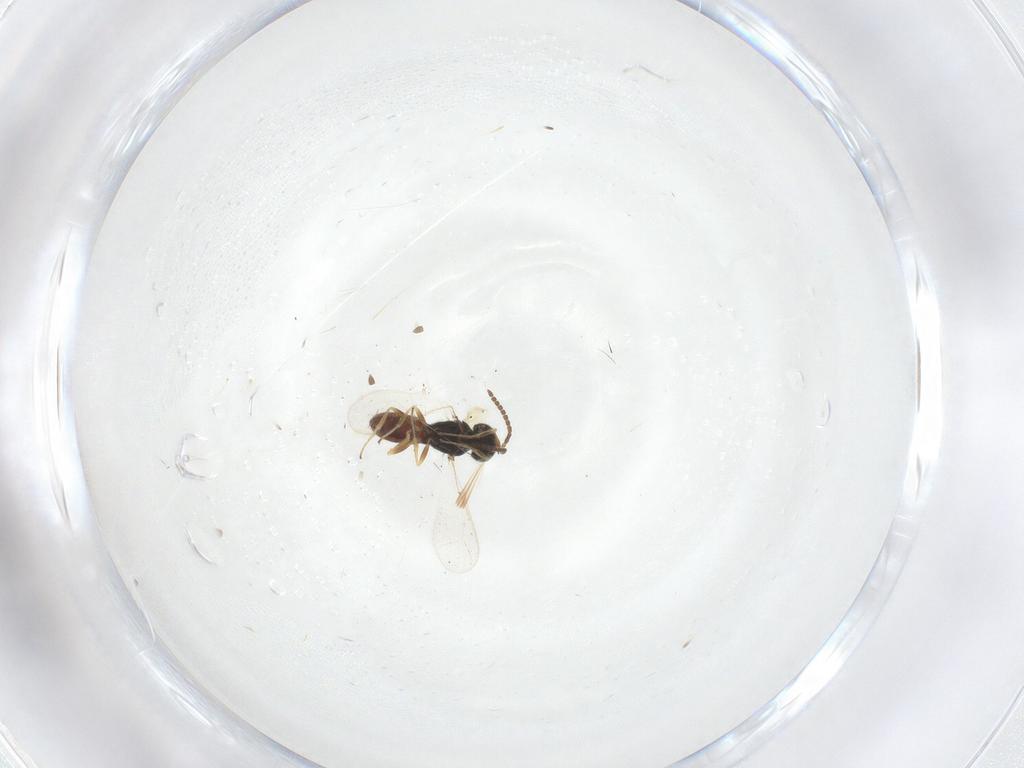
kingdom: Animalia
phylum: Arthropoda
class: Insecta
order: Hymenoptera
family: Scelionidae
